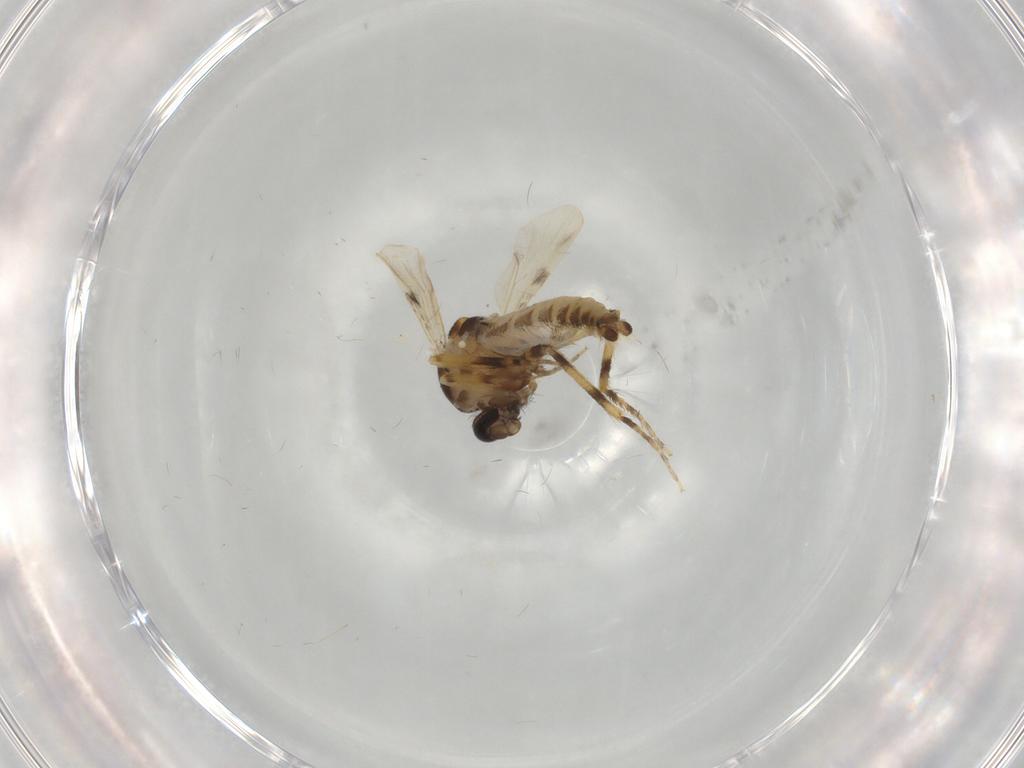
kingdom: Animalia
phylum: Arthropoda
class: Insecta
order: Diptera
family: Ceratopogonidae
